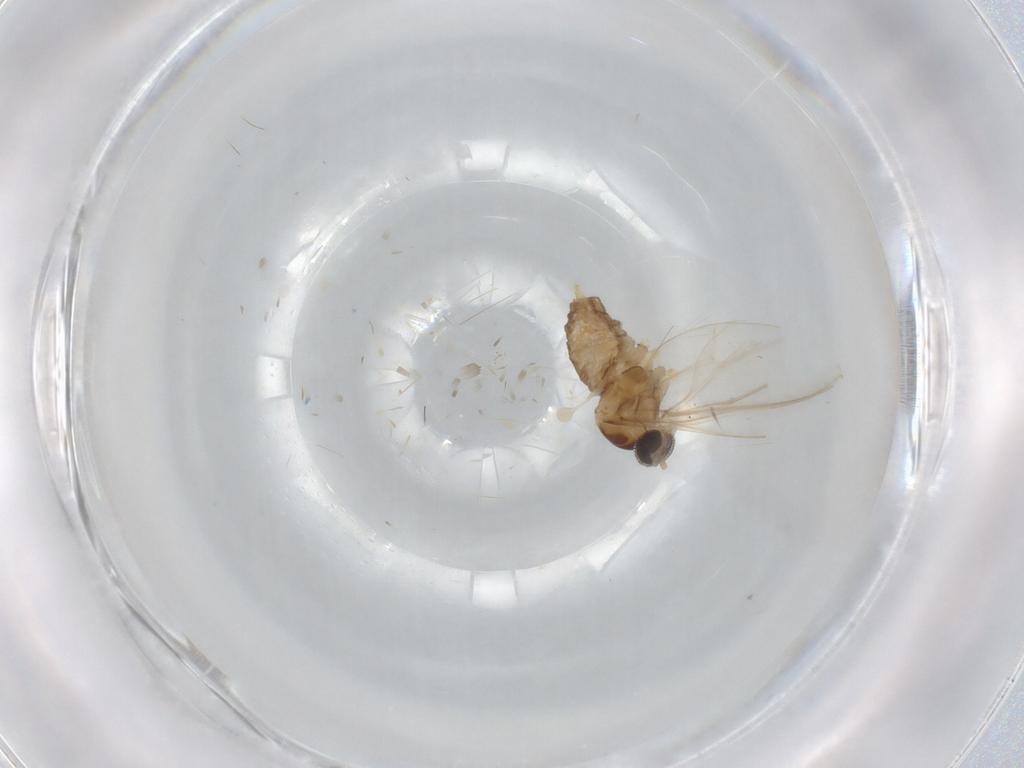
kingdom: Animalia
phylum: Arthropoda
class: Insecta
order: Diptera
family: Cecidomyiidae
